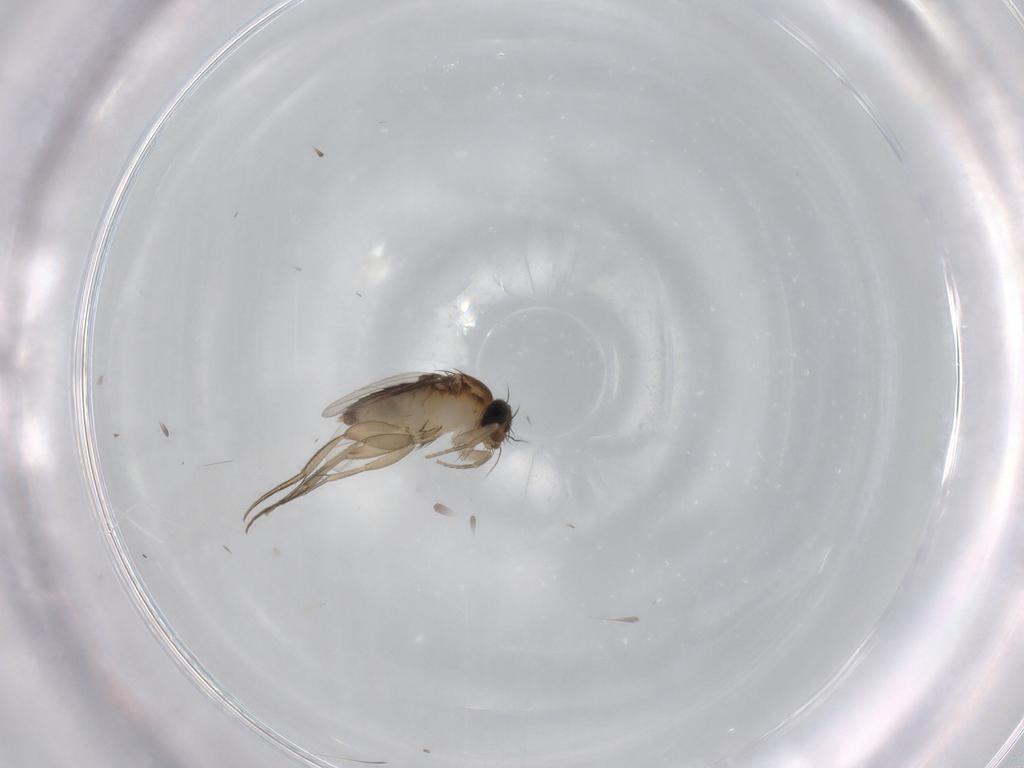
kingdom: Animalia
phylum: Arthropoda
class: Insecta
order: Diptera
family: Phoridae
